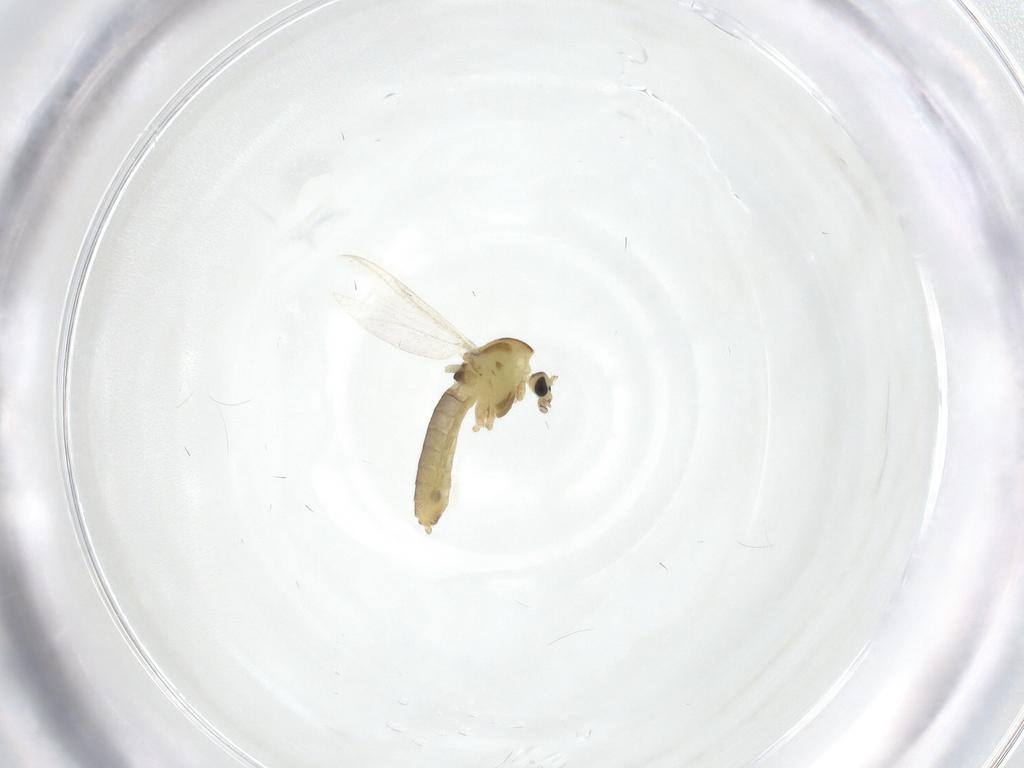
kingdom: Animalia
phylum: Arthropoda
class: Insecta
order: Diptera
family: Chironomidae
